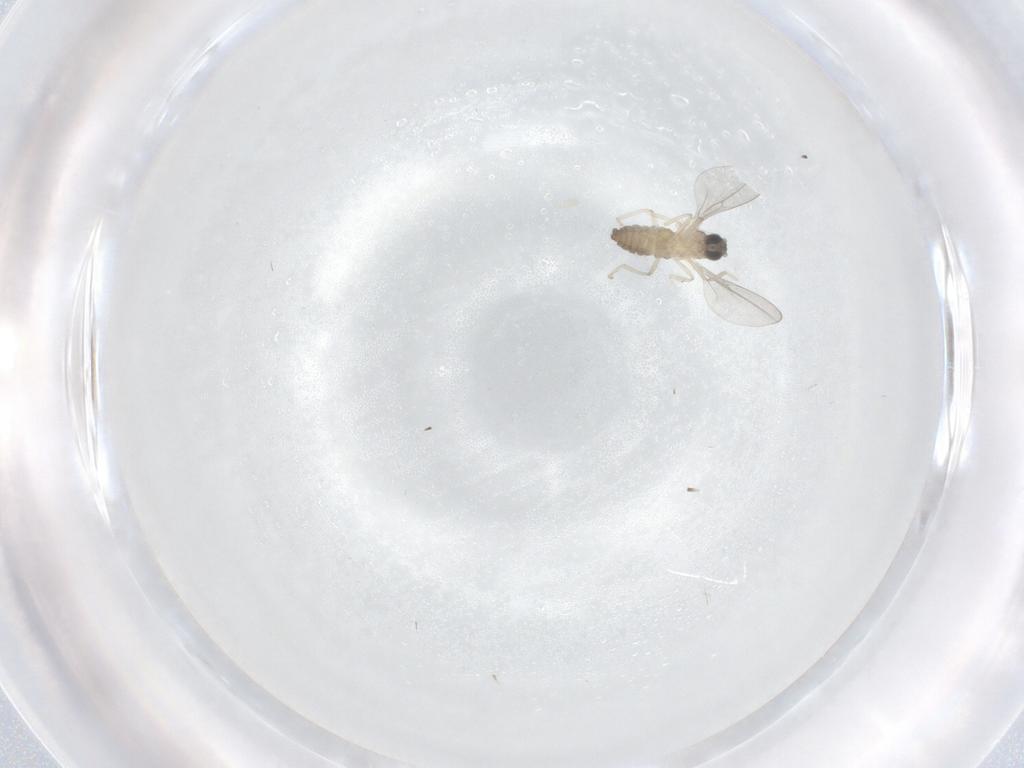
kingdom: Animalia
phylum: Arthropoda
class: Insecta
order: Diptera
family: Cecidomyiidae
